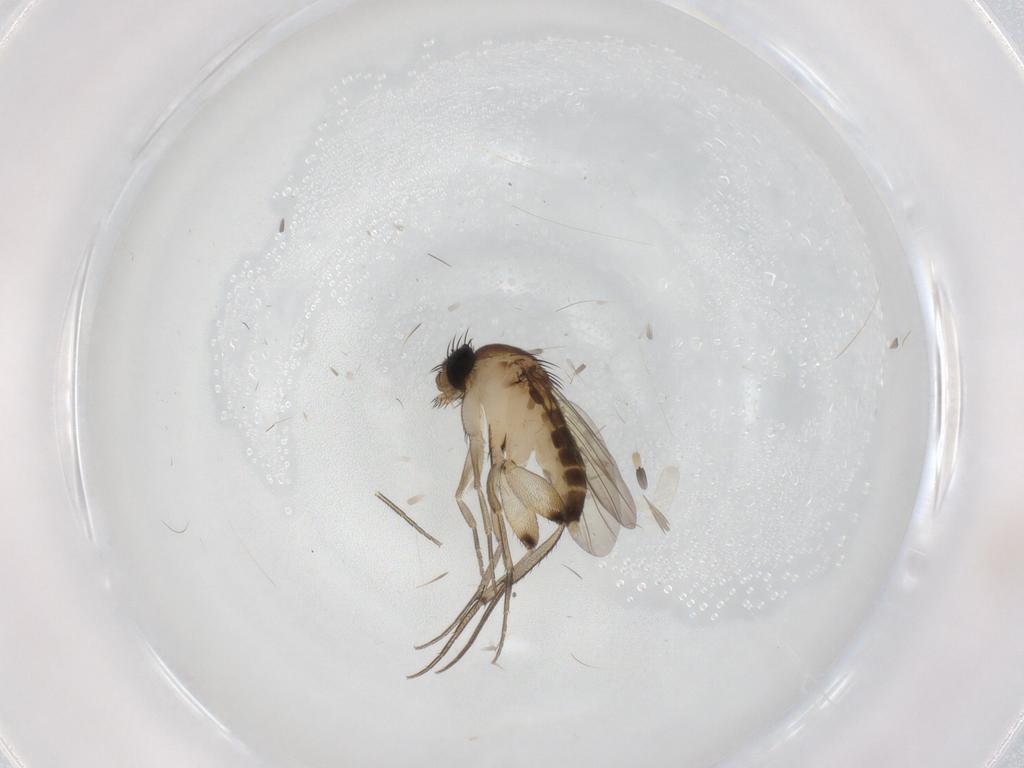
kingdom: Animalia
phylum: Arthropoda
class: Insecta
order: Diptera
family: Phoridae
